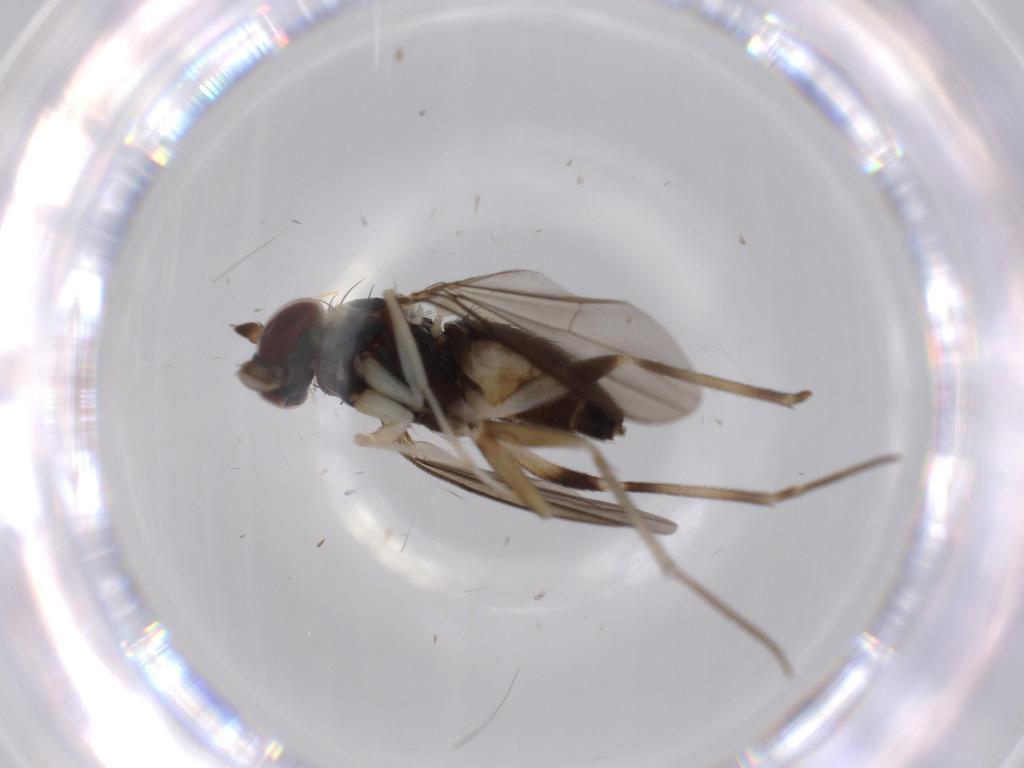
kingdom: Animalia
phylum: Arthropoda
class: Insecta
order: Diptera
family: Dolichopodidae
